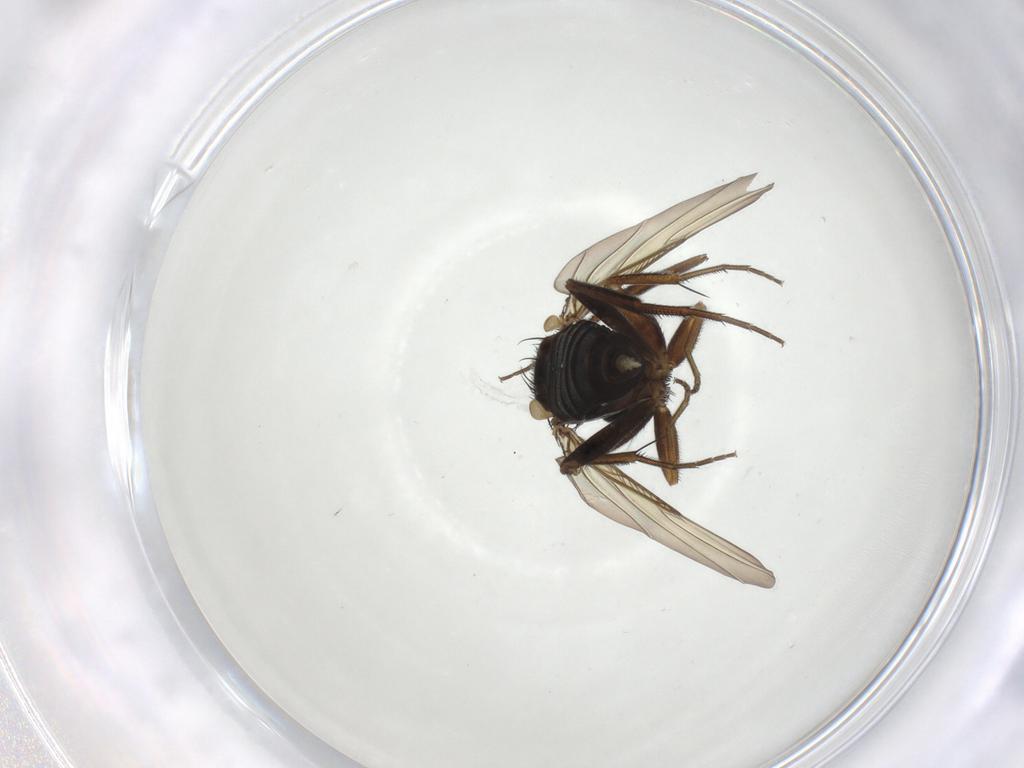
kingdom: Animalia
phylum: Arthropoda
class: Insecta
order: Diptera
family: Phoridae
